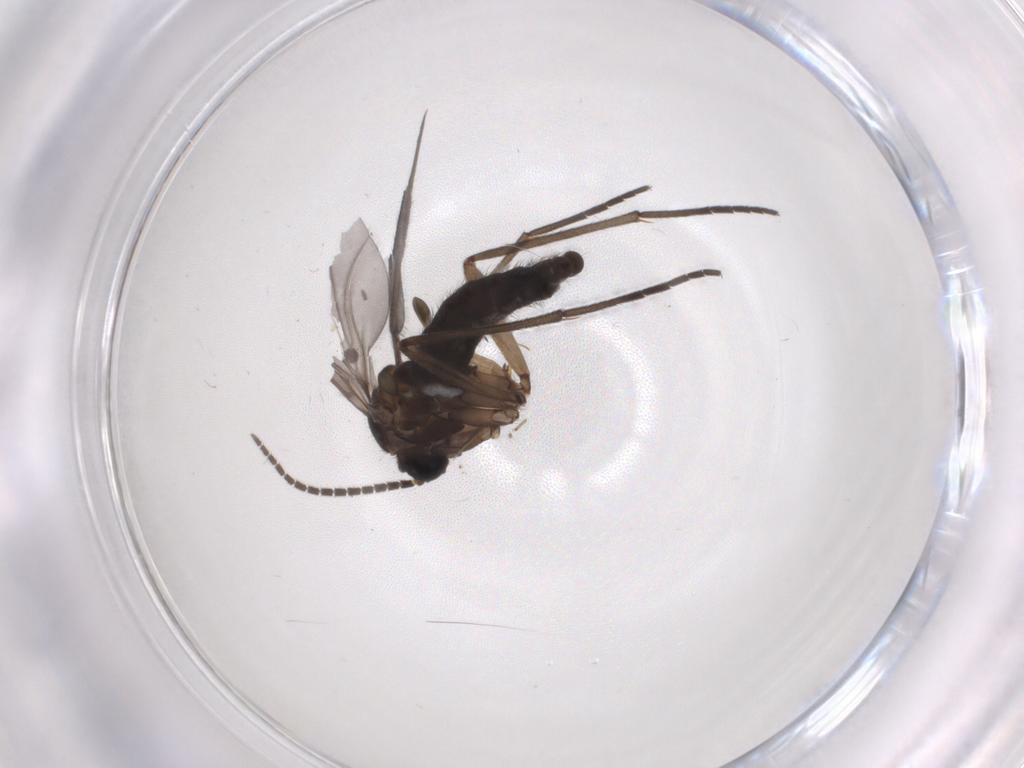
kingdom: Animalia
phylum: Arthropoda
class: Insecta
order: Diptera
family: Sciaridae
